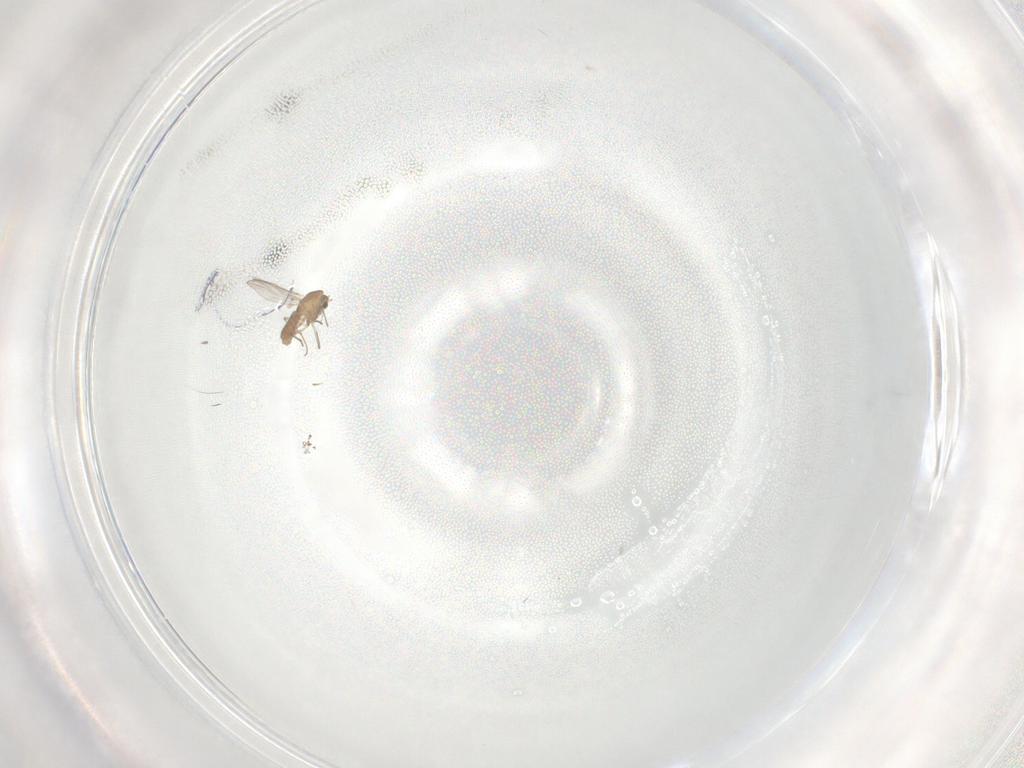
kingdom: Animalia
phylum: Arthropoda
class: Insecta
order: Diptera
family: Chironomidae
